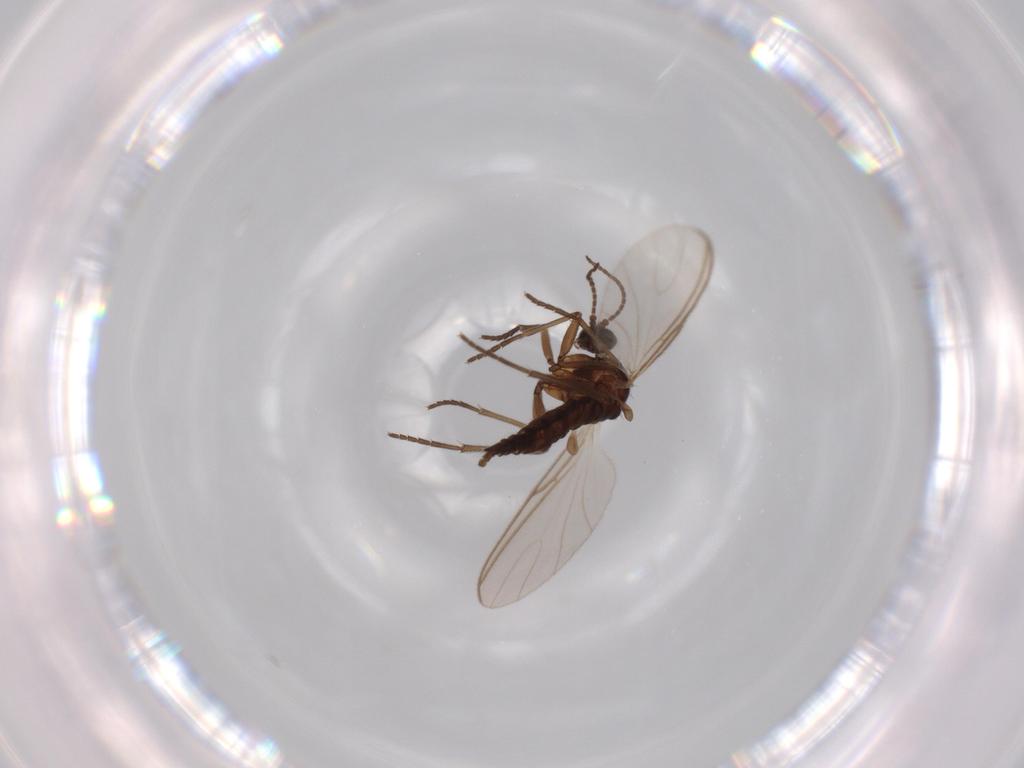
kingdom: Animalia
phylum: Arthropoda
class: Insecta
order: Diptera
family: Sciaridae
